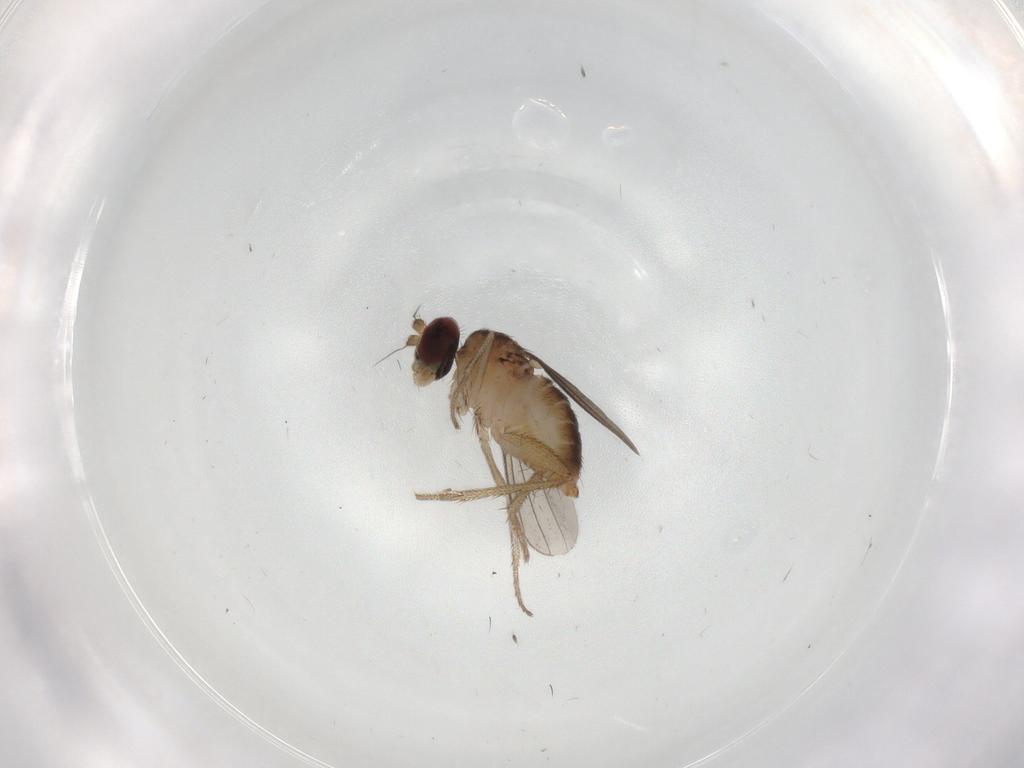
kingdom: Animalia
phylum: Arthropoda
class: Insecta
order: Diptera
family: Dolichopodidae
